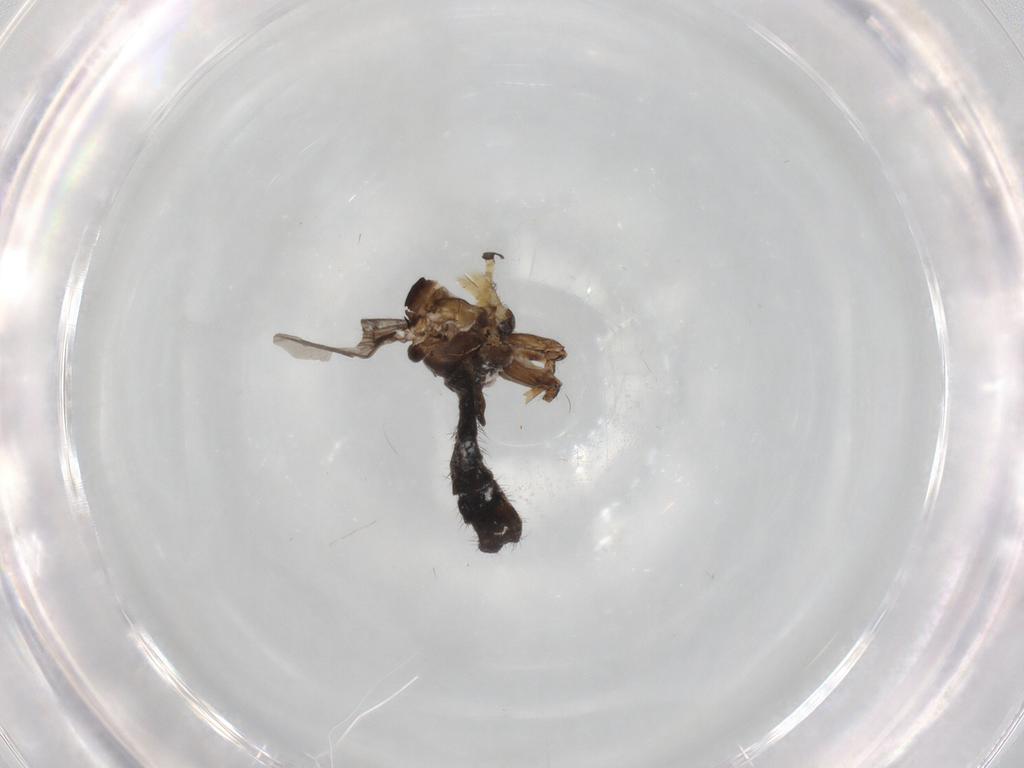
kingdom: Animalia
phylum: Arthropoda
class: Insecta
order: Diptera
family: Sciaridae
